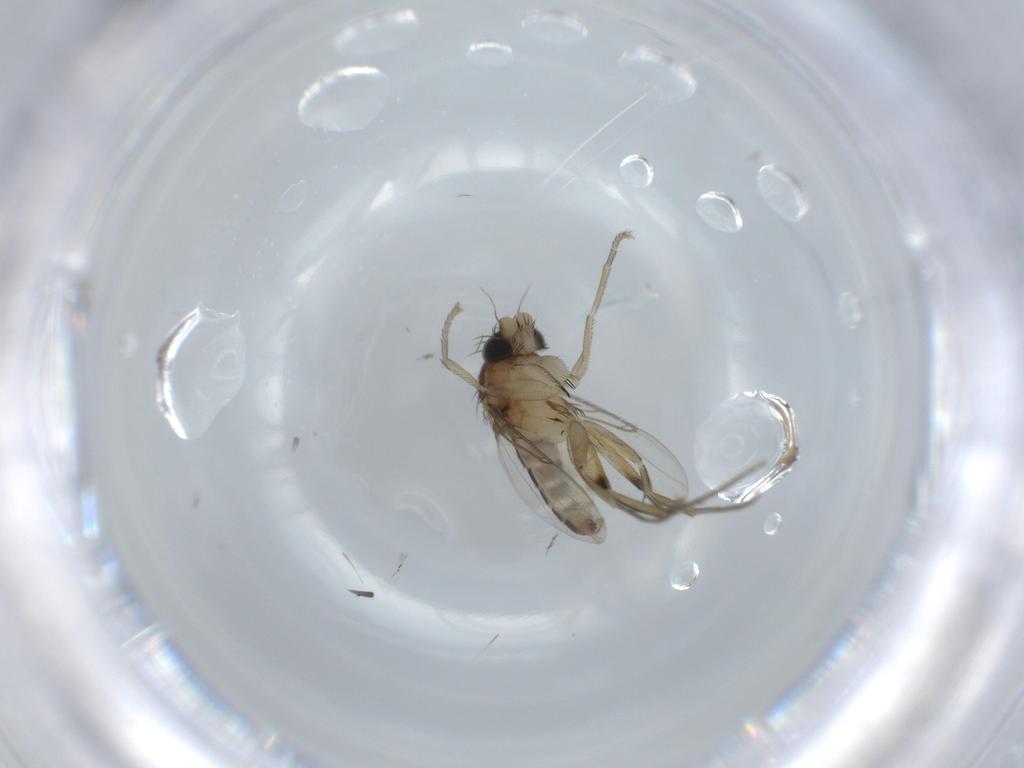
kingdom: Animalia
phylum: Arthropoda
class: Insecta
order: Diptera
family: Phoridae
